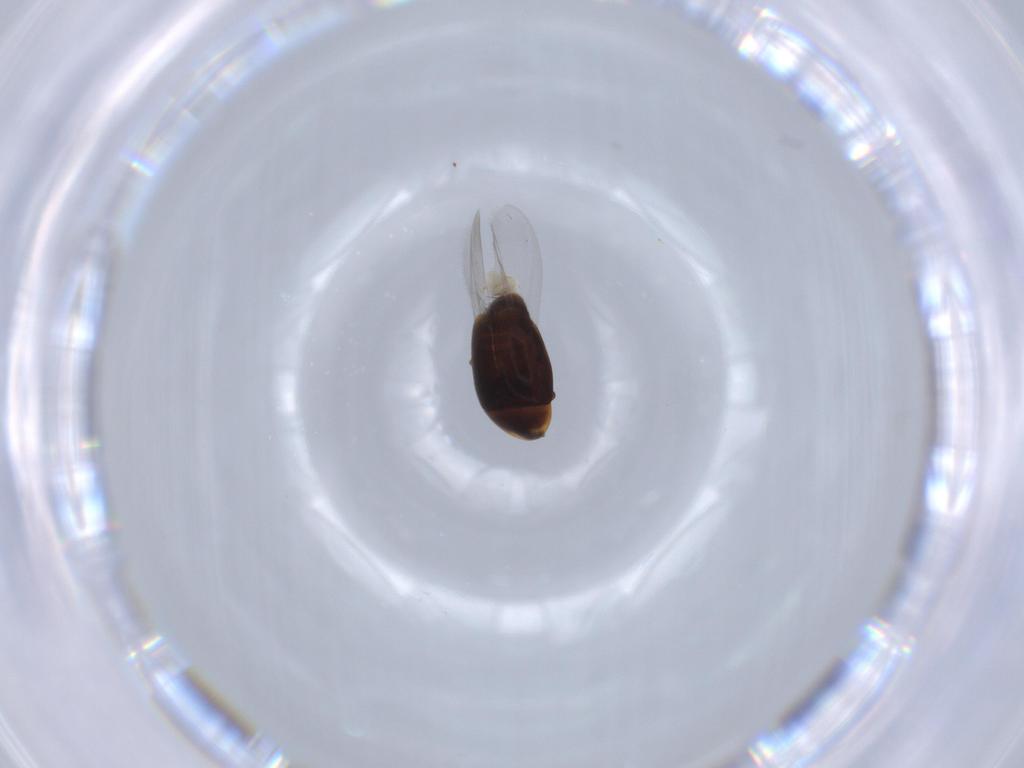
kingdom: Animalia
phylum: Arthropoda
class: Insecta
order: Coleoptera
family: Corylophidae
